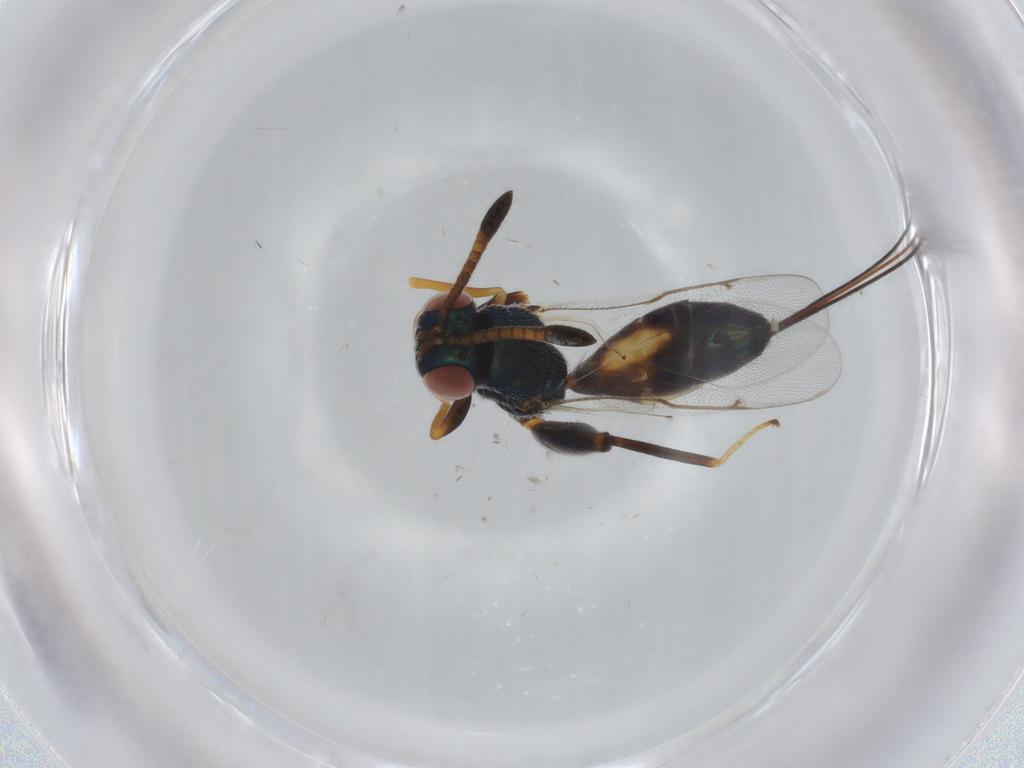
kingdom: Animalia
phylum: Arthropoda
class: Insecta
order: Hymenoptera
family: Torymidae
